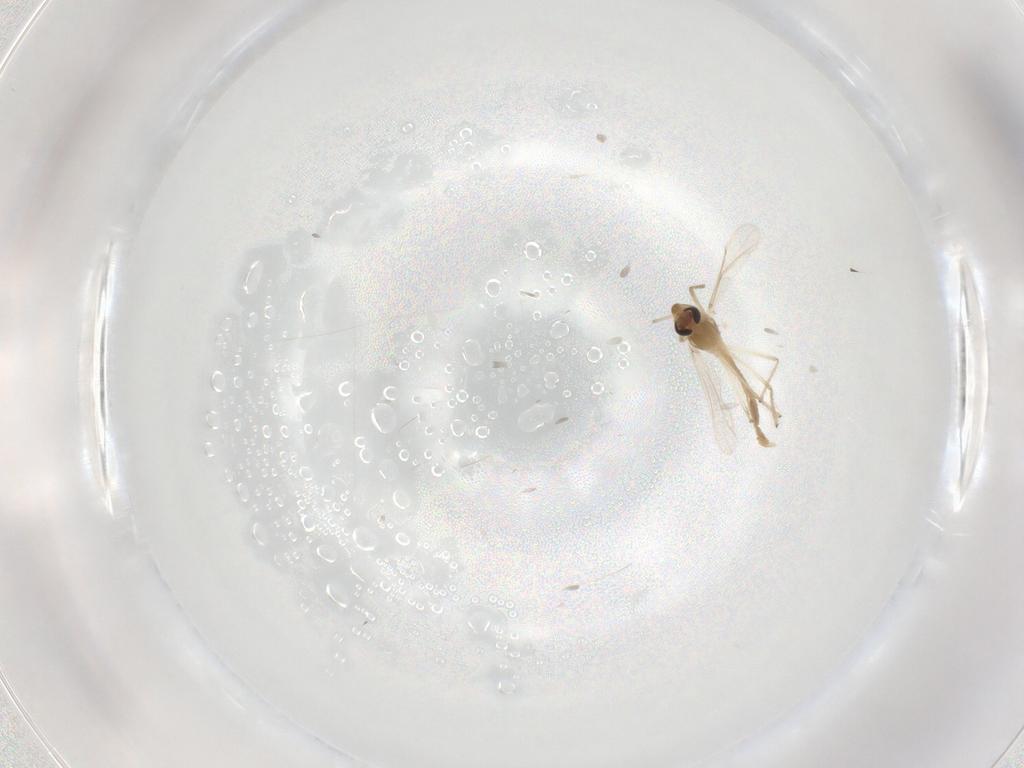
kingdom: Animalia
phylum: Arthropoda
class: Insecta
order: Diptera
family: Chironomidae
